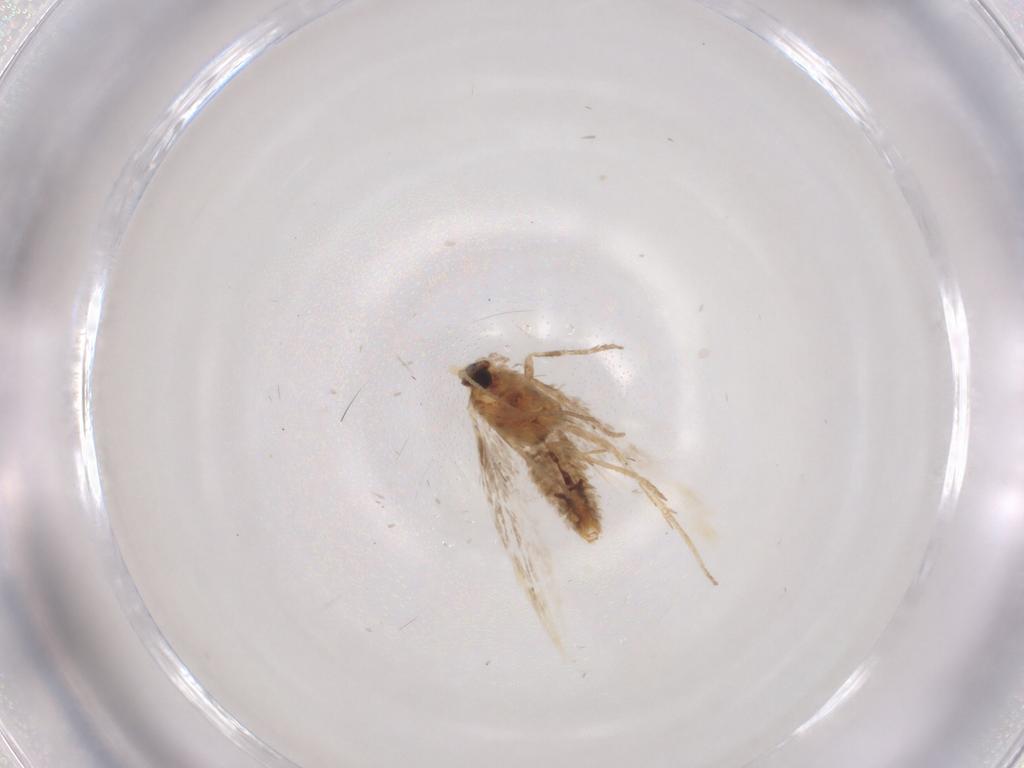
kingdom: Animalia
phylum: Arthropoda
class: Insecta
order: Lepidoptera
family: Nepticulidae
